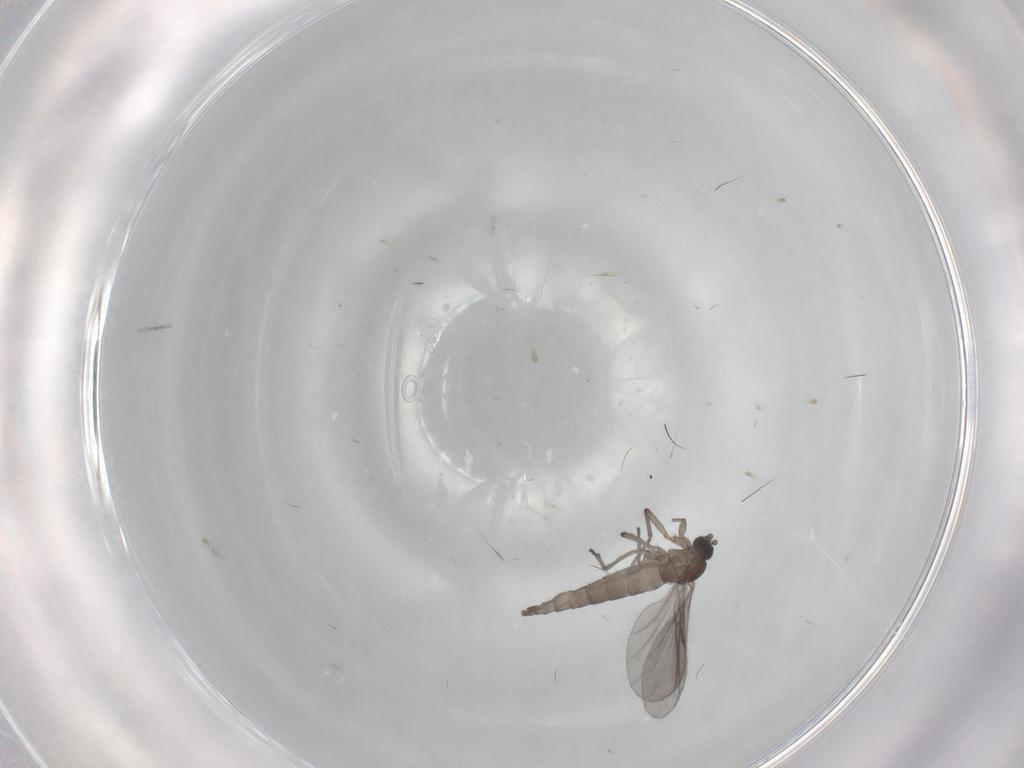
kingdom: Animalia
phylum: Arthropoda
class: Insecta
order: Diptera
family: Sciaridae
